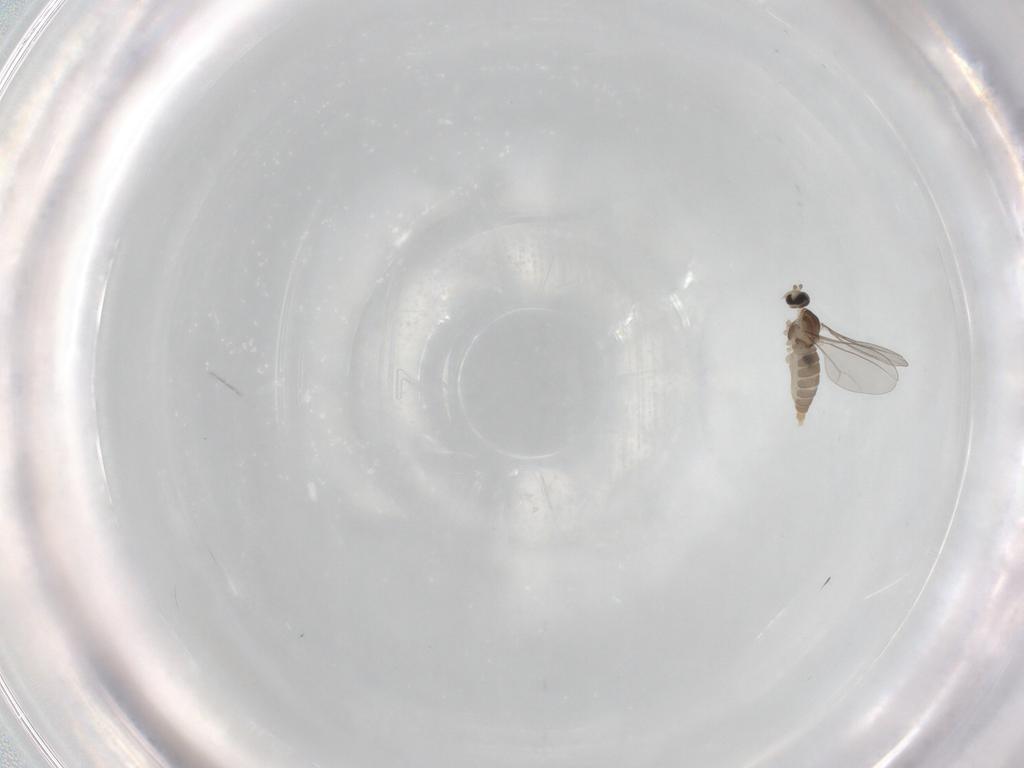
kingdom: Animalia
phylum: Arthropoda
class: Insecta
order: Diptera
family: Cecidomyiidae
